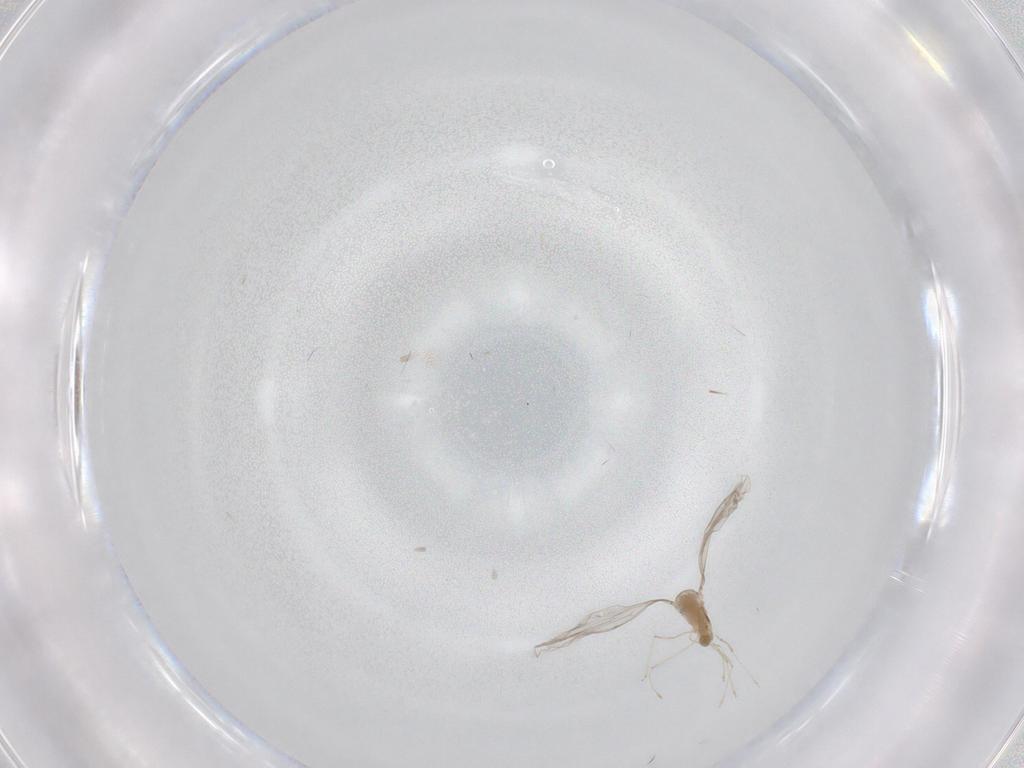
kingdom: Animalia
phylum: Arthropoda
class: Insecta
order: Diptera
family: Cecidomyiidae
